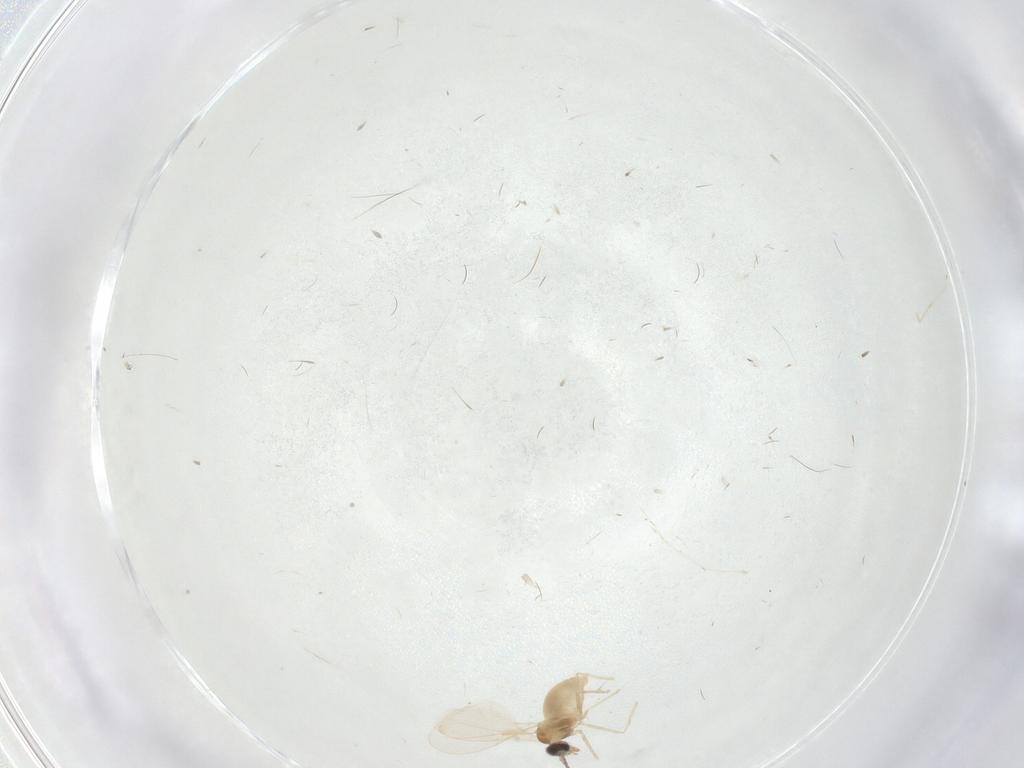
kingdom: Animalia
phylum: Arthropoda
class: Insecta
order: Diptera
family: Cecidomyiidae
